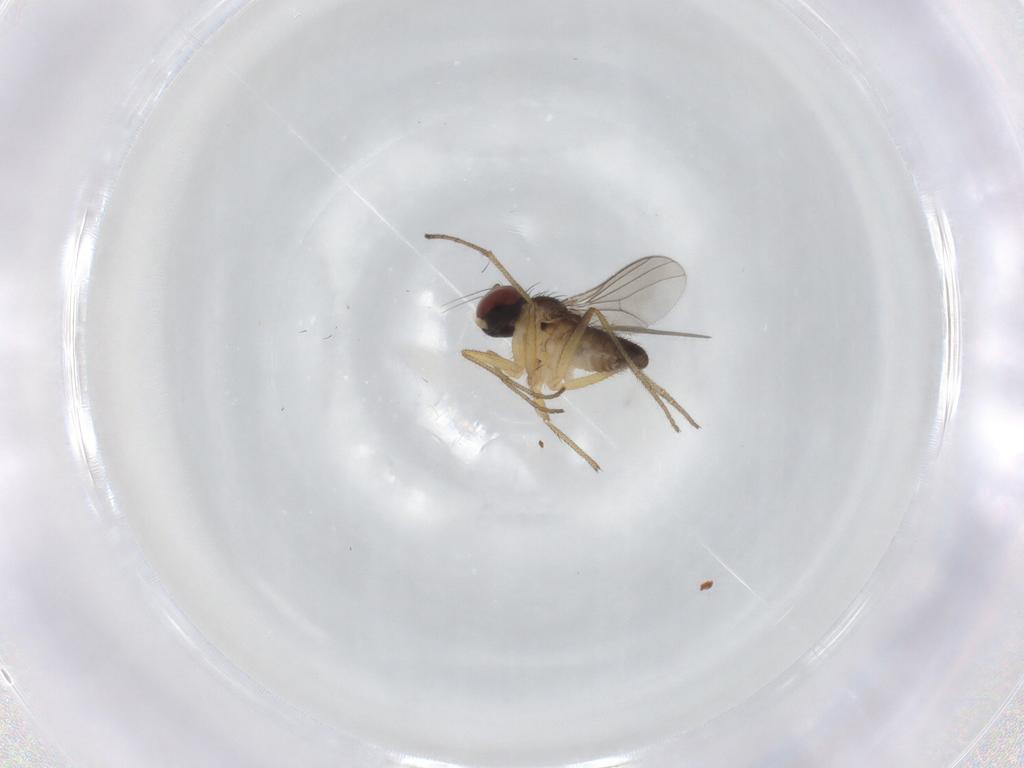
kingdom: Animalia
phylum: Arthropoda
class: Insecta
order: Diptera
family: Dolichopodidae
